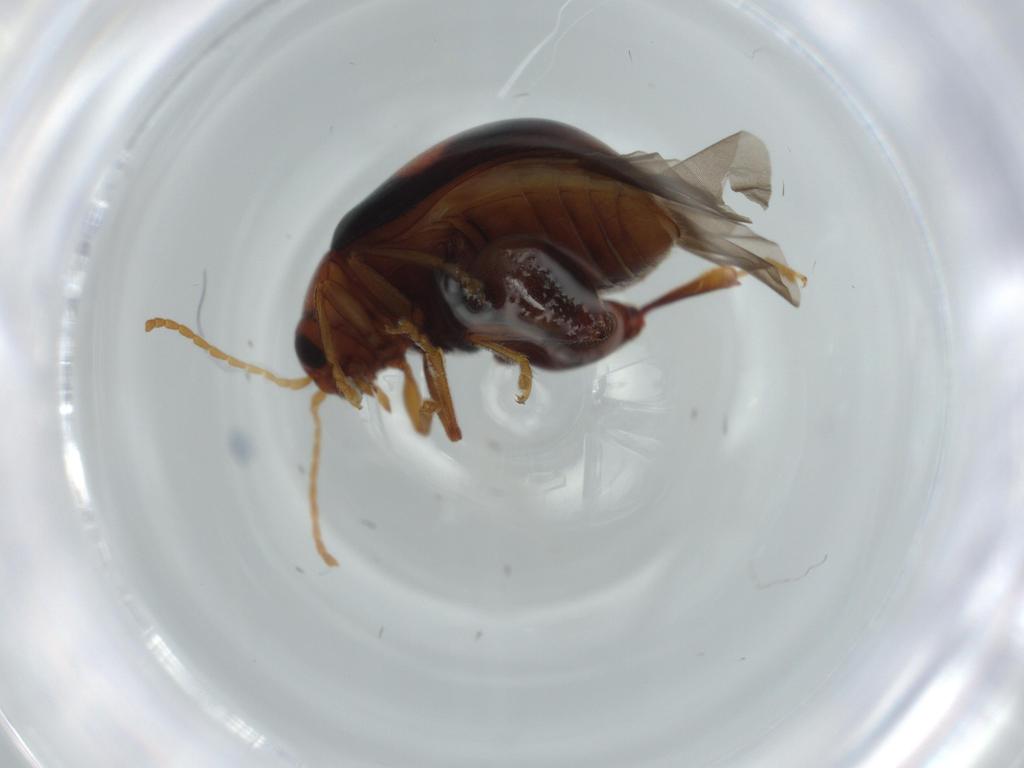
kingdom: Animalia
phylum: Arthropoda
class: Insecta
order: Coleoptera
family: Chrysomelidae
